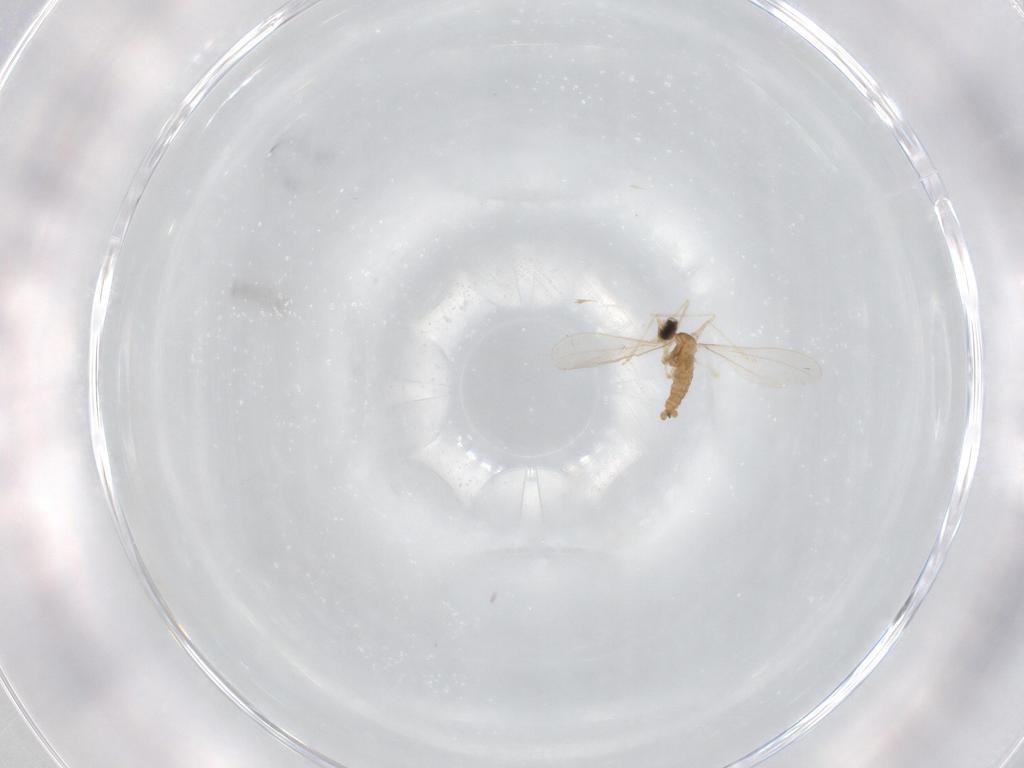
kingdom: Animalia
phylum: Arthropoda
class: Insecta
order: Diptera
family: Cecidomyiidae
